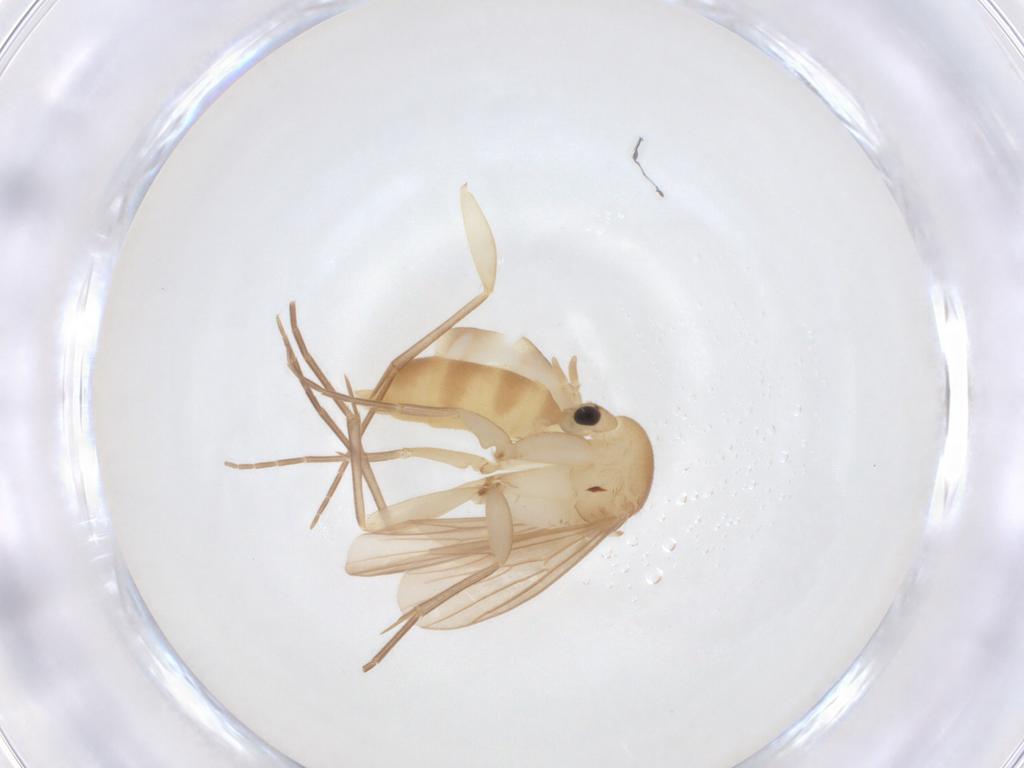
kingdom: Animalia
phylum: Arthropoda
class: Insecta
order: Diptera
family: Mycetophilidae
